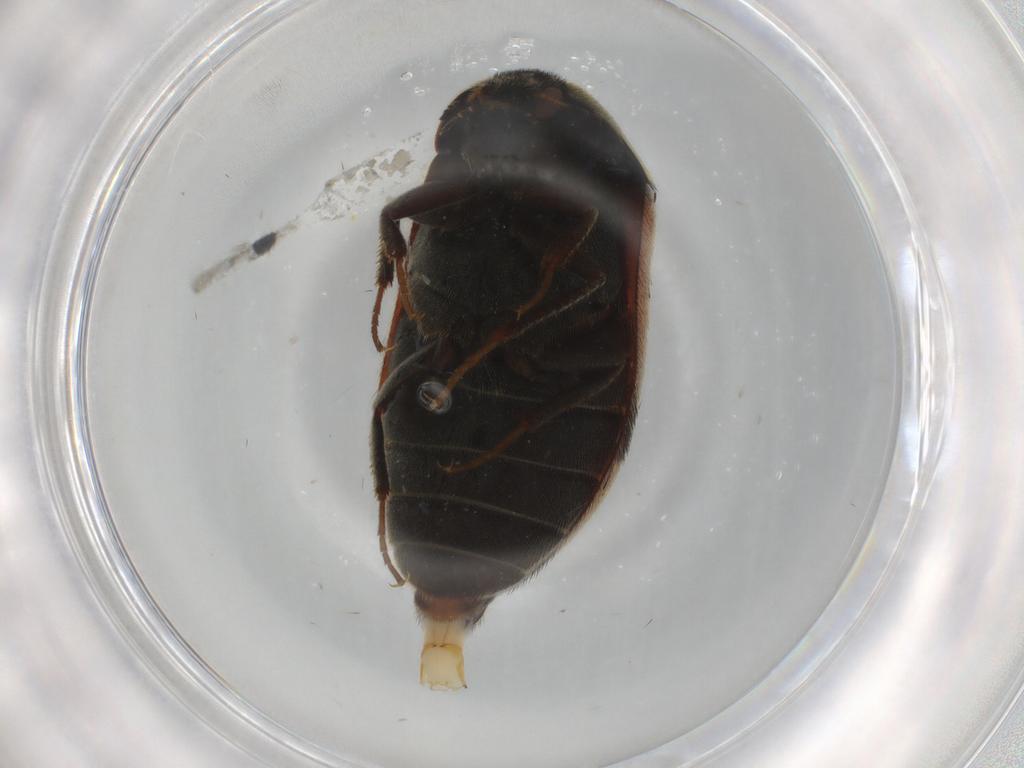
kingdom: Animalia
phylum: Arthropoda
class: Insecta
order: Coleoptera
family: Dermestidae
